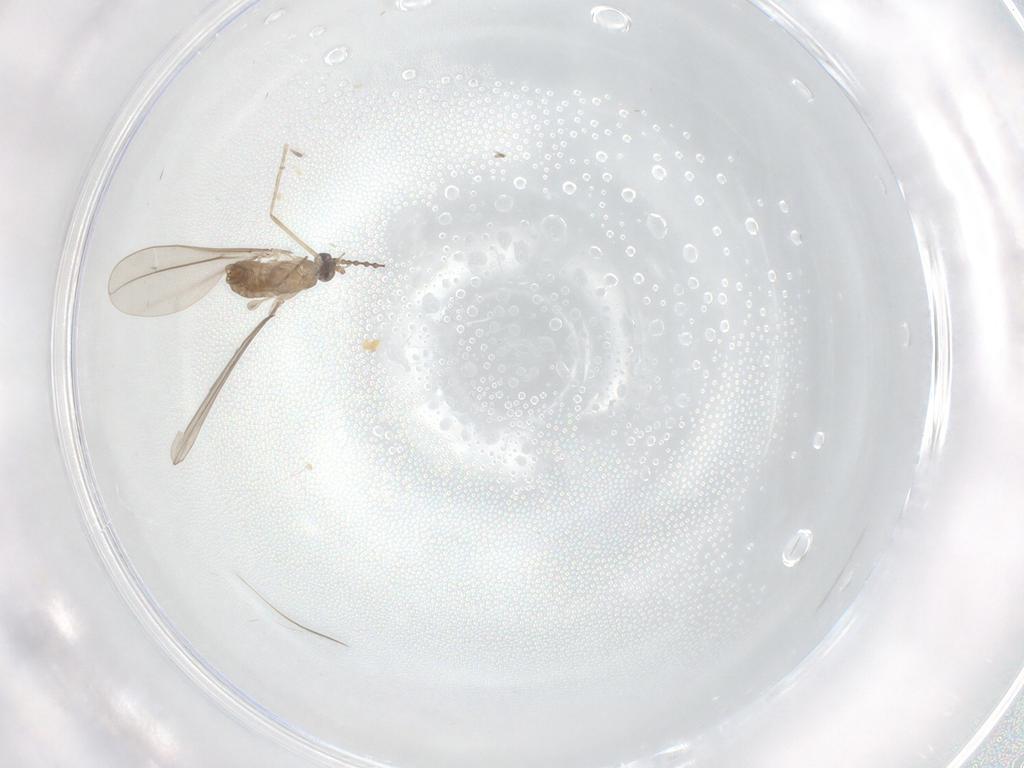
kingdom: Animalia
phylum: Arthropoda
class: Insecta
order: Diptera
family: Cecidomyiidae
